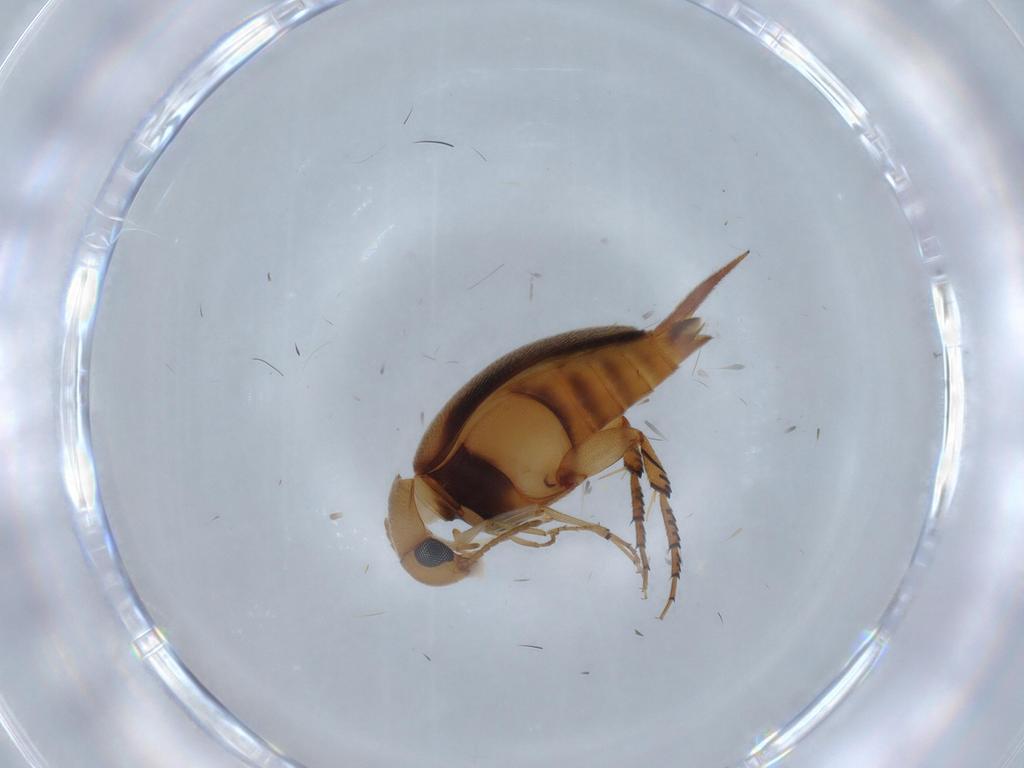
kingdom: Animalia
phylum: Arthropoda
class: Insecta
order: Coleoptera
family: Mordellidae
